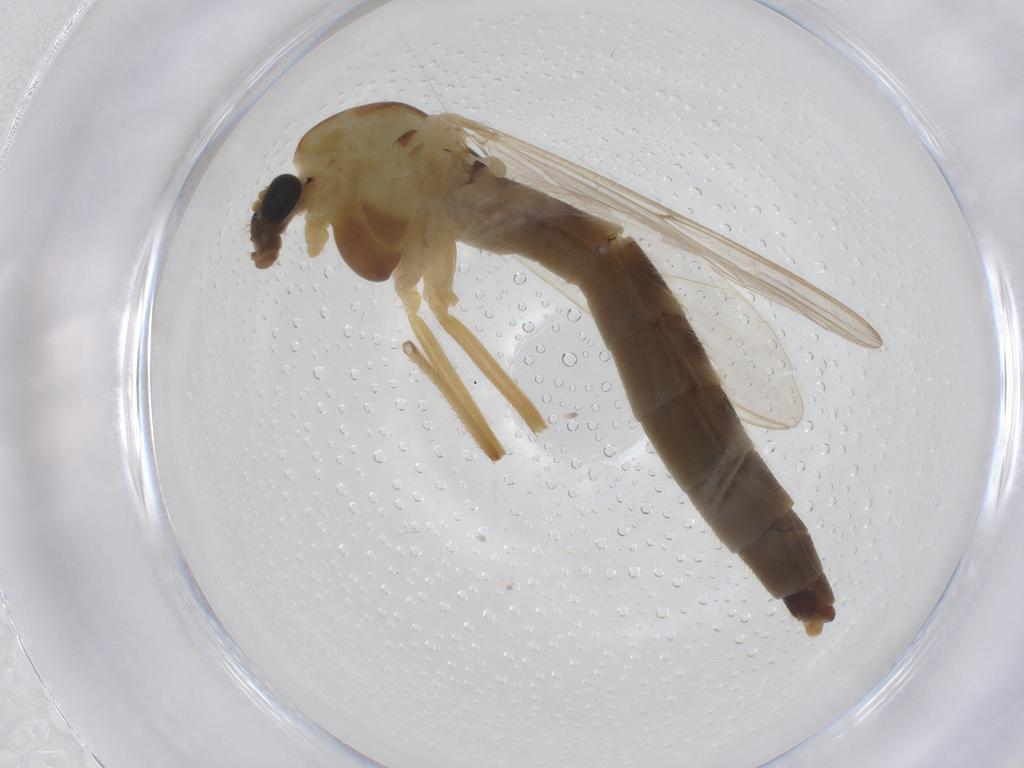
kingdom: Animalia
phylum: Arthropoda
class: Insecta
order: Diptera
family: Chironomidae
